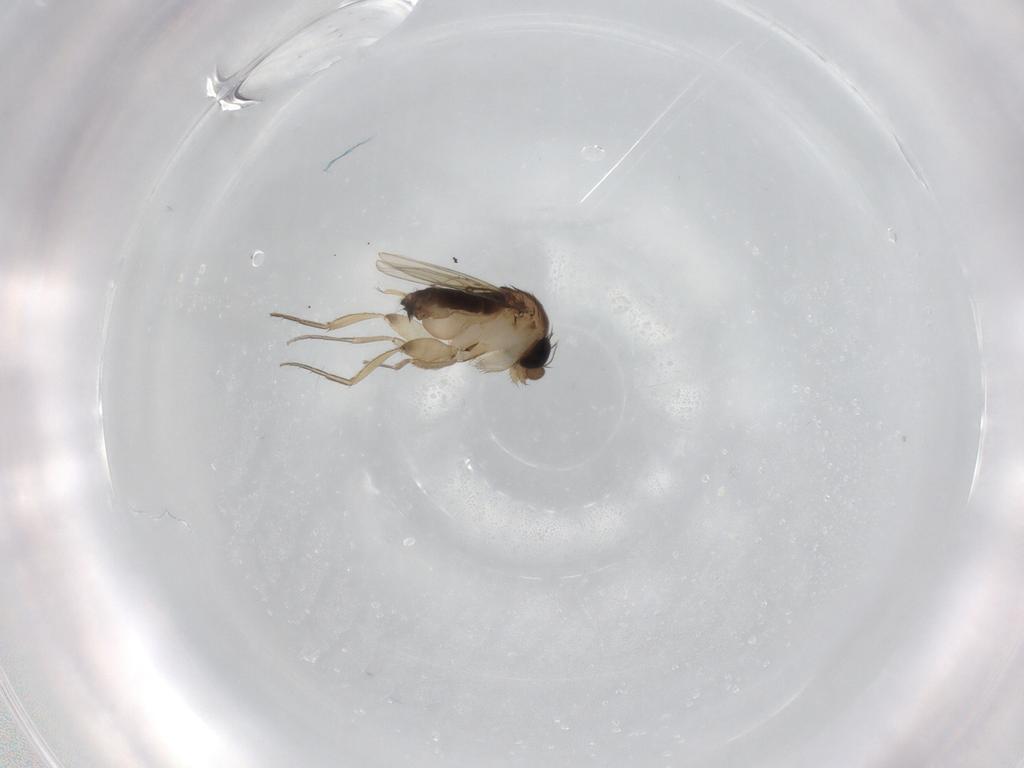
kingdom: Animalia
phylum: Arthropoda
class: Insecta
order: Diptera
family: Phoridae
